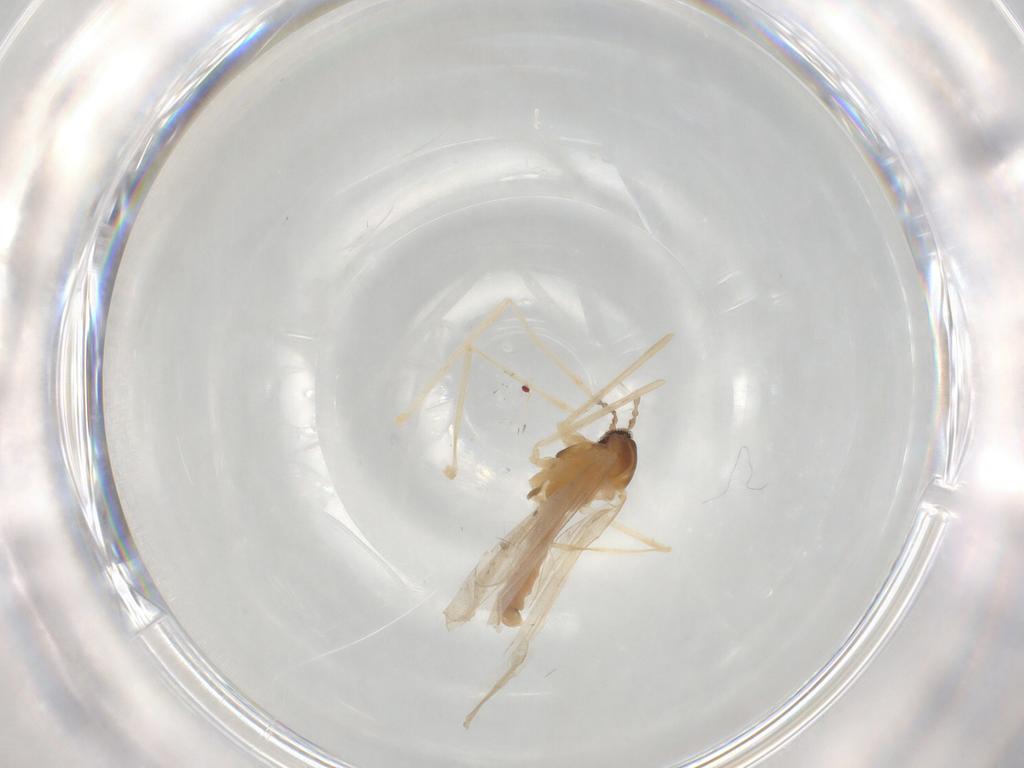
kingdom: Animalia
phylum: Arthropoda
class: Insecta
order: Diptera
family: Cecidomyiidae
